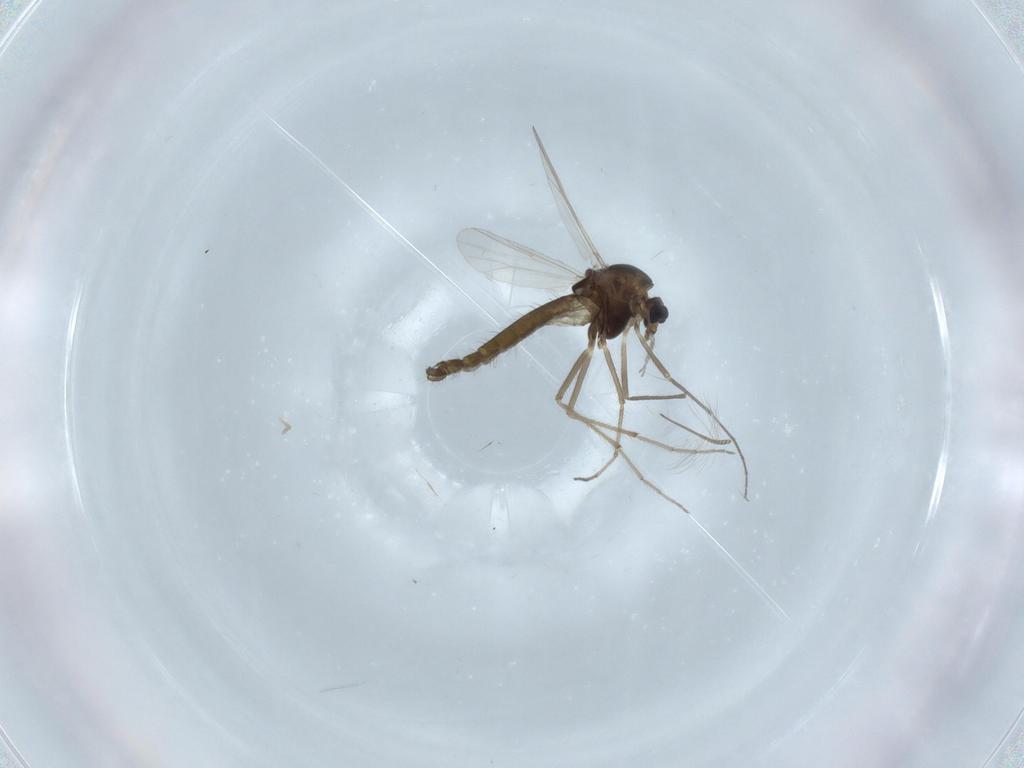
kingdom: Animalia
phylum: Arthropoda
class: Insecta
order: Diptera
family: Chironomidae
